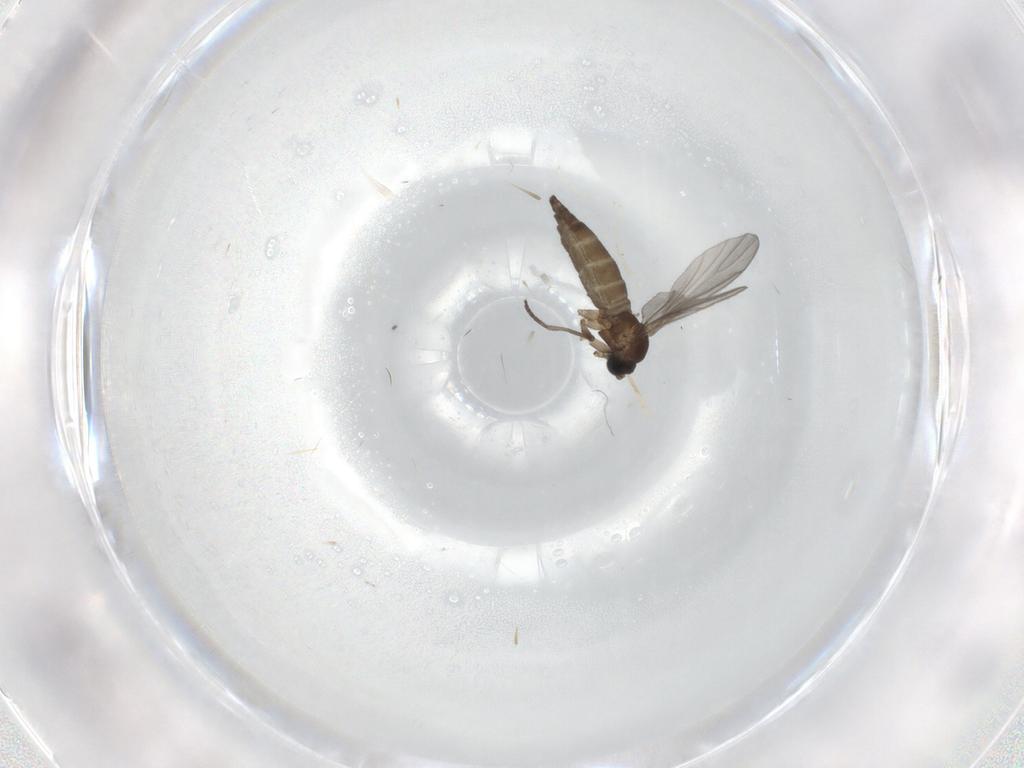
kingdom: Animalia
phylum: Arthropoda
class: Insecta
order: Diptera
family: Sciaridae
